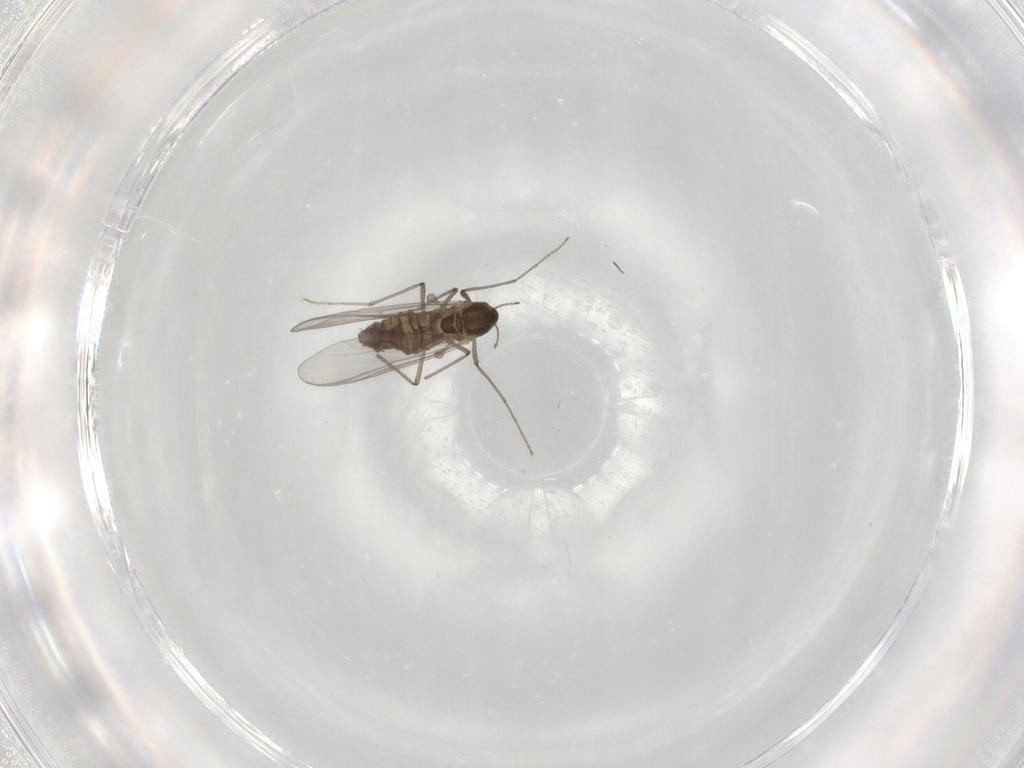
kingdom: Animalia
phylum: Arthropoda
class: Insecta
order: Diptera
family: Chironomidae
